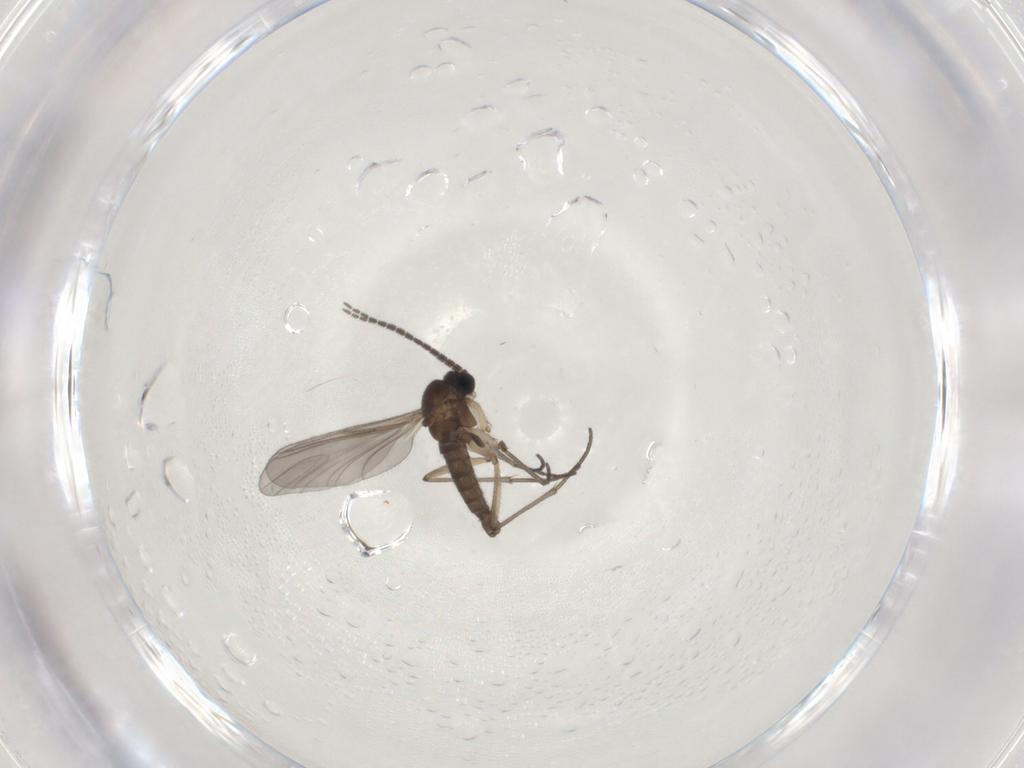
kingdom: Animalia
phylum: Arthropoda
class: Insecta
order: Diptera
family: Sciaridae
